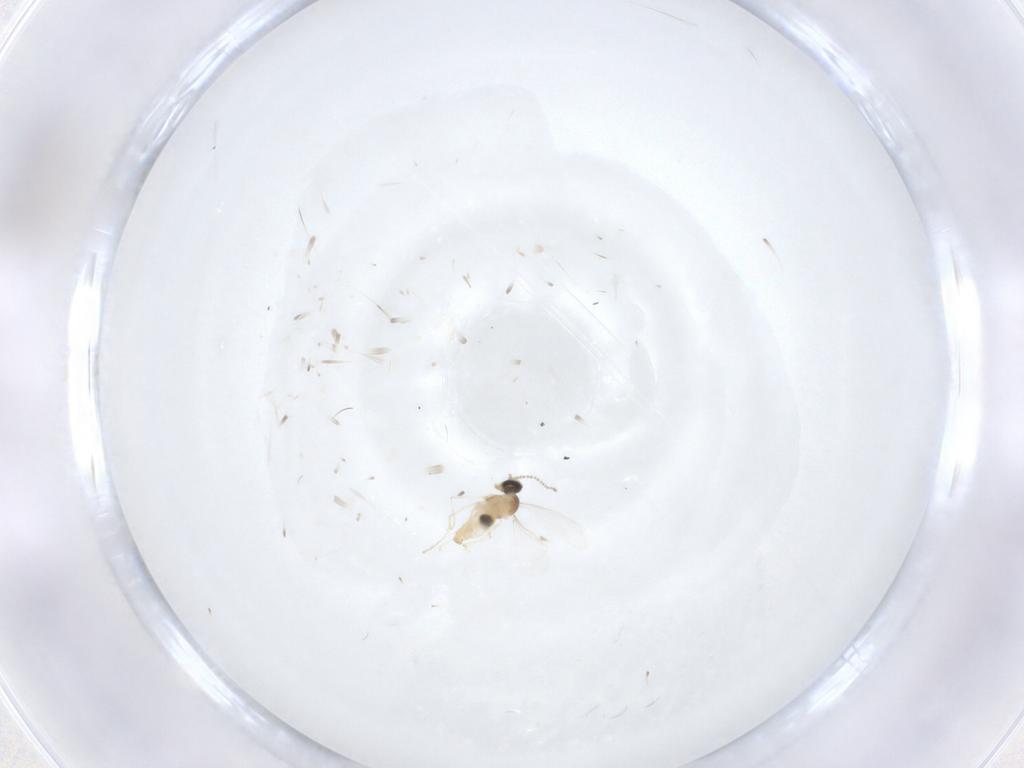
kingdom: Animalia
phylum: Arthropoda
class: Insecta
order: Diptera
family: Cecidomyiidae
